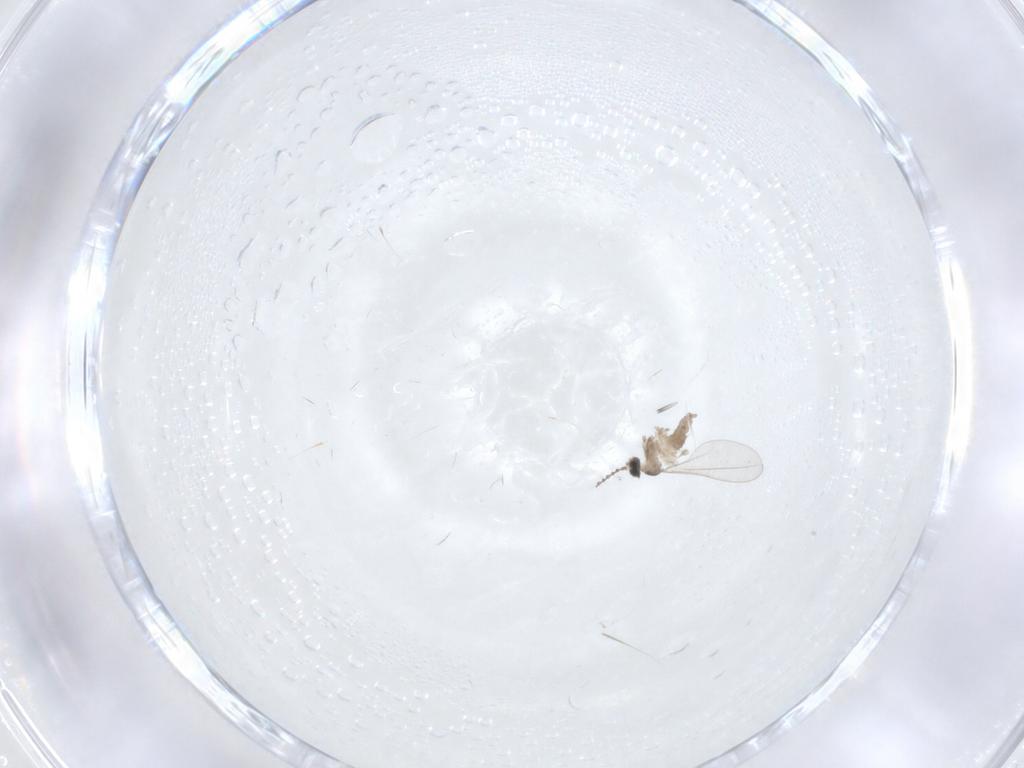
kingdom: Animalia
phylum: Arthropoda
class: Insecta
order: Diptera
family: Cecidomyiidae
